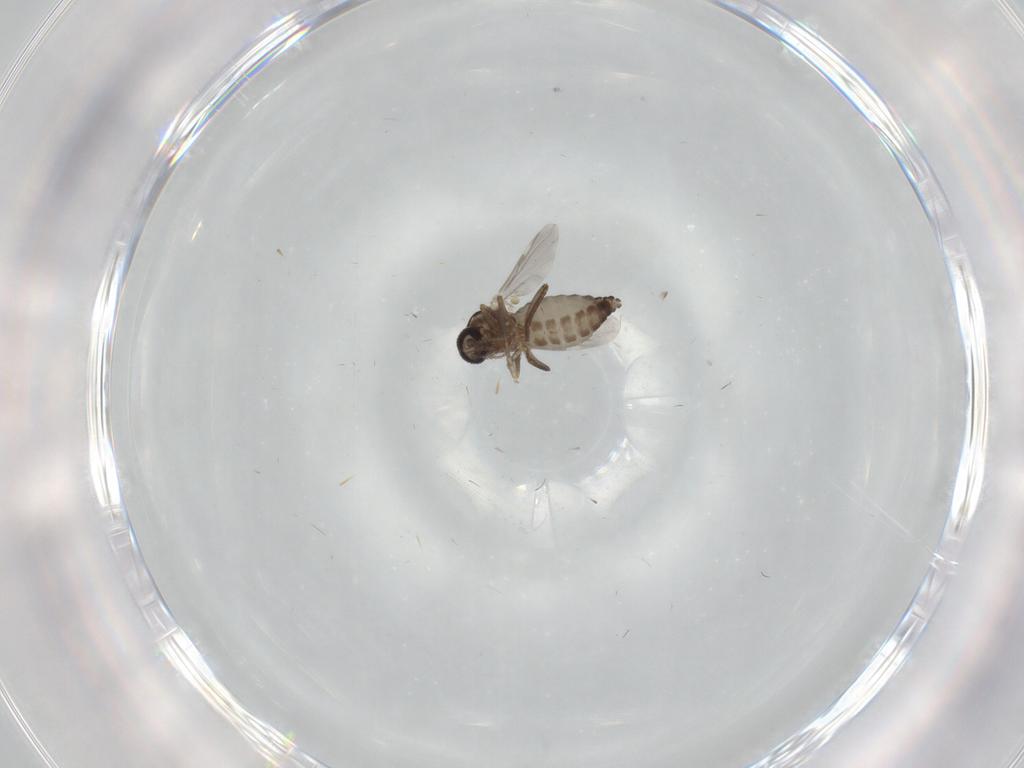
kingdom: Animalia
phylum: Arthropoda
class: Insecta
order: Diptera
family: Ceratopogonidae
